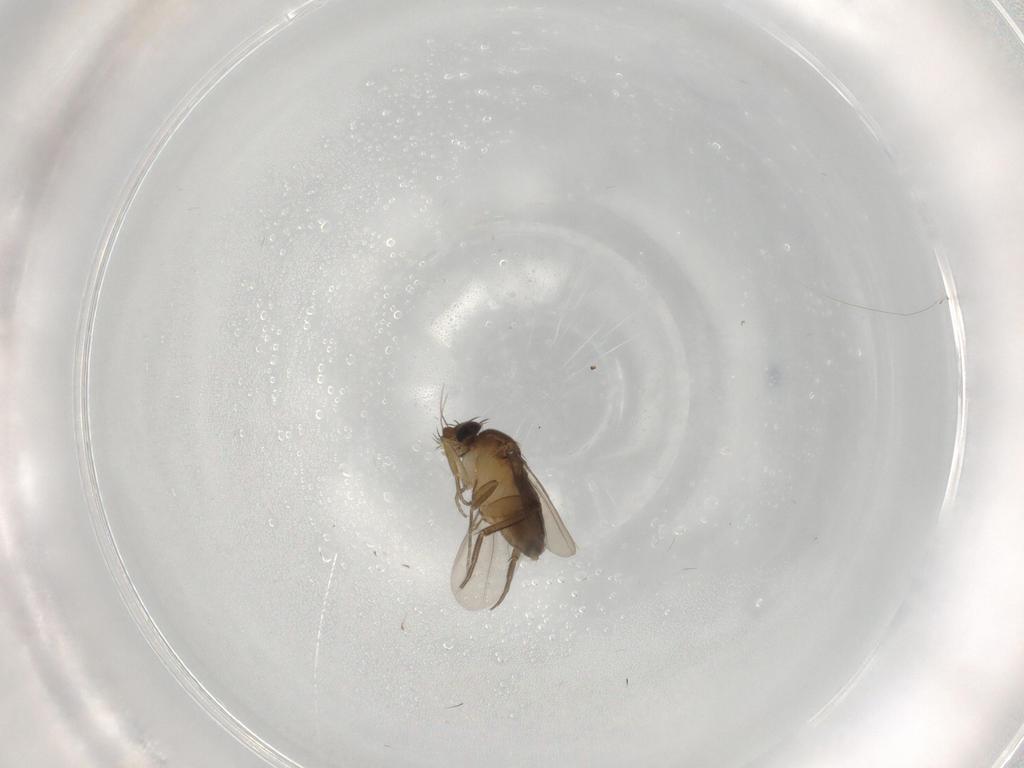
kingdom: Animalia
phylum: Arthropoda
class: Insecta
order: Diptera
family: Phoridae
